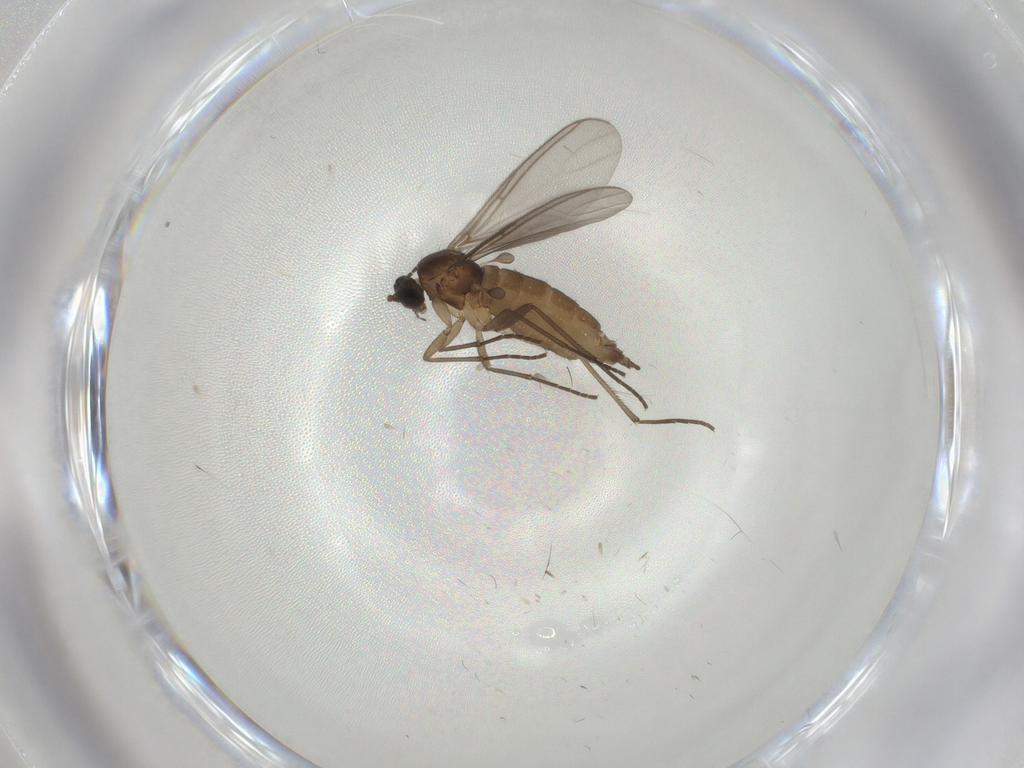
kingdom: Animalia
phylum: Arthropoda
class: Insecta
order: Diptera
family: Sciaridae
